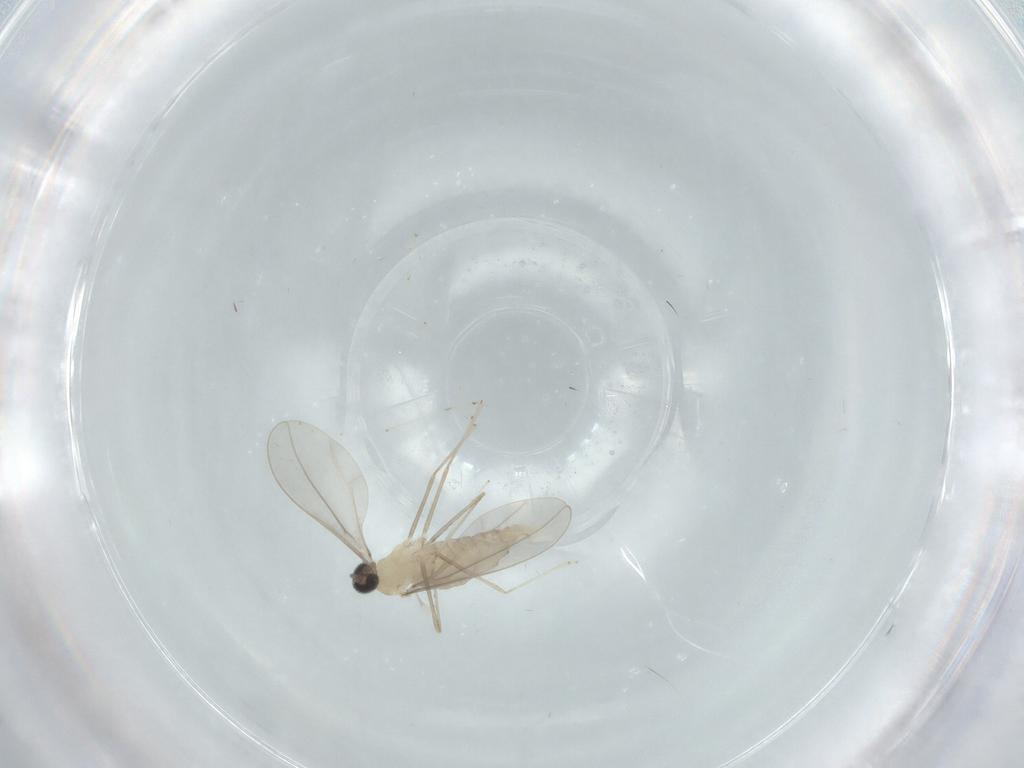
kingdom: Animalia
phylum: Arthropoda
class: Insecta
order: Diptera
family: Cecidomyiidae
